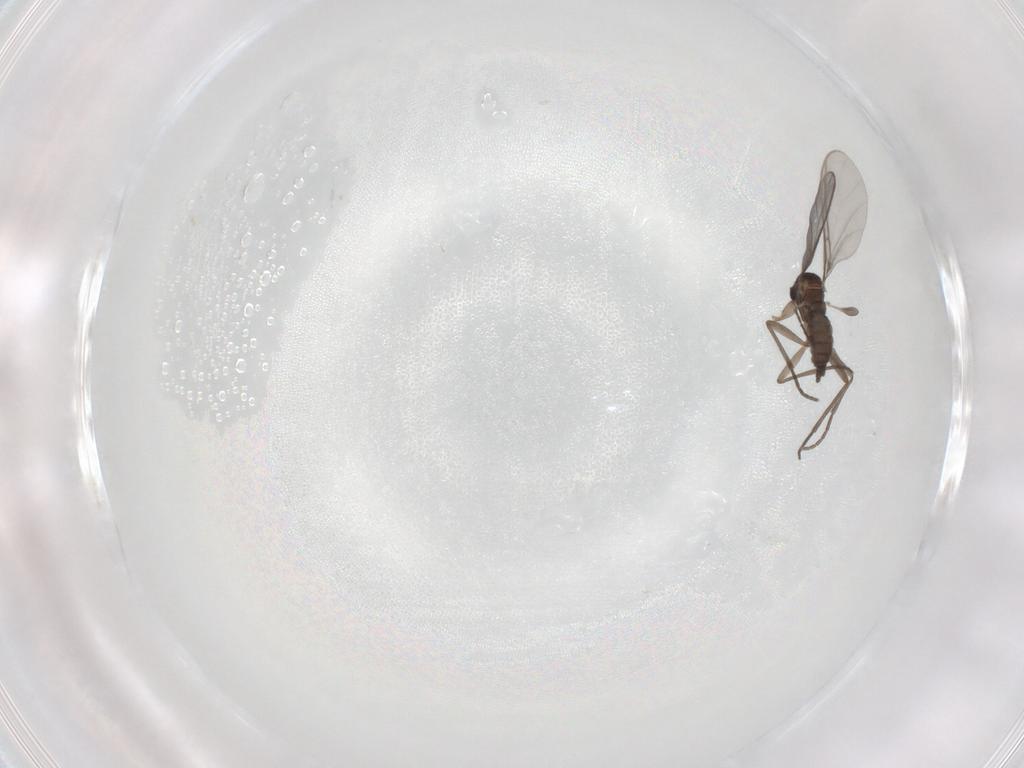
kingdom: Animalia
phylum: Arthropoda
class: Insecta
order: Diptera
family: Sciaridae
